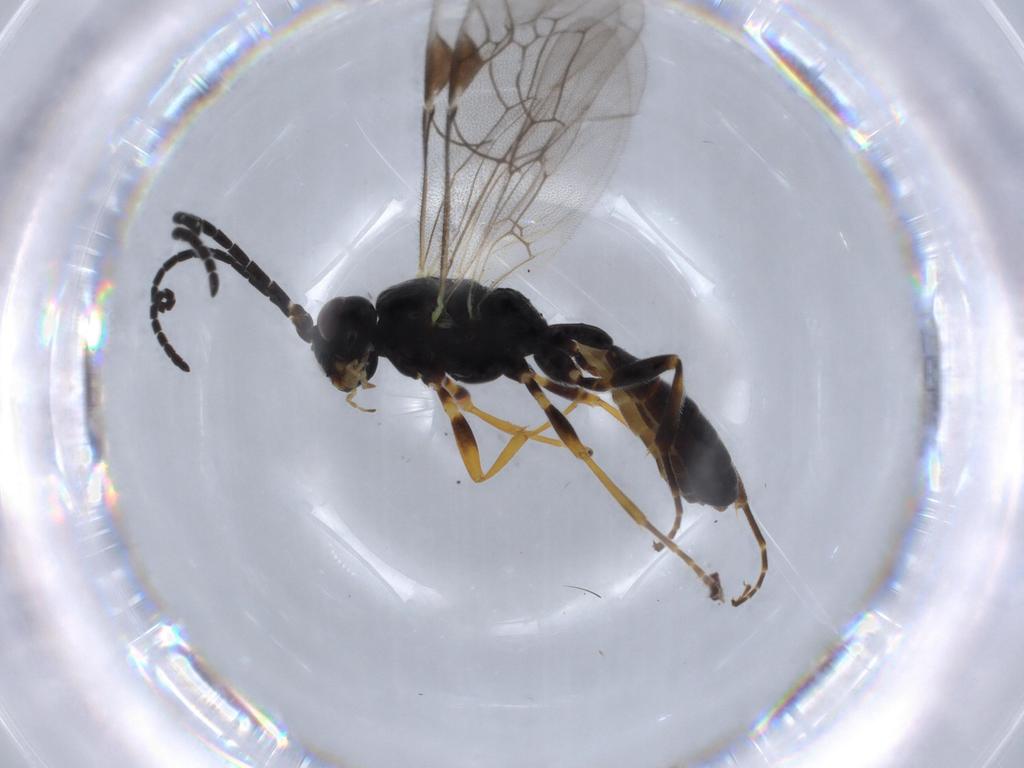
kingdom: Animalia
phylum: Arthropoda
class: Insecta
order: Hymenoptera
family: Ichneumonidae
